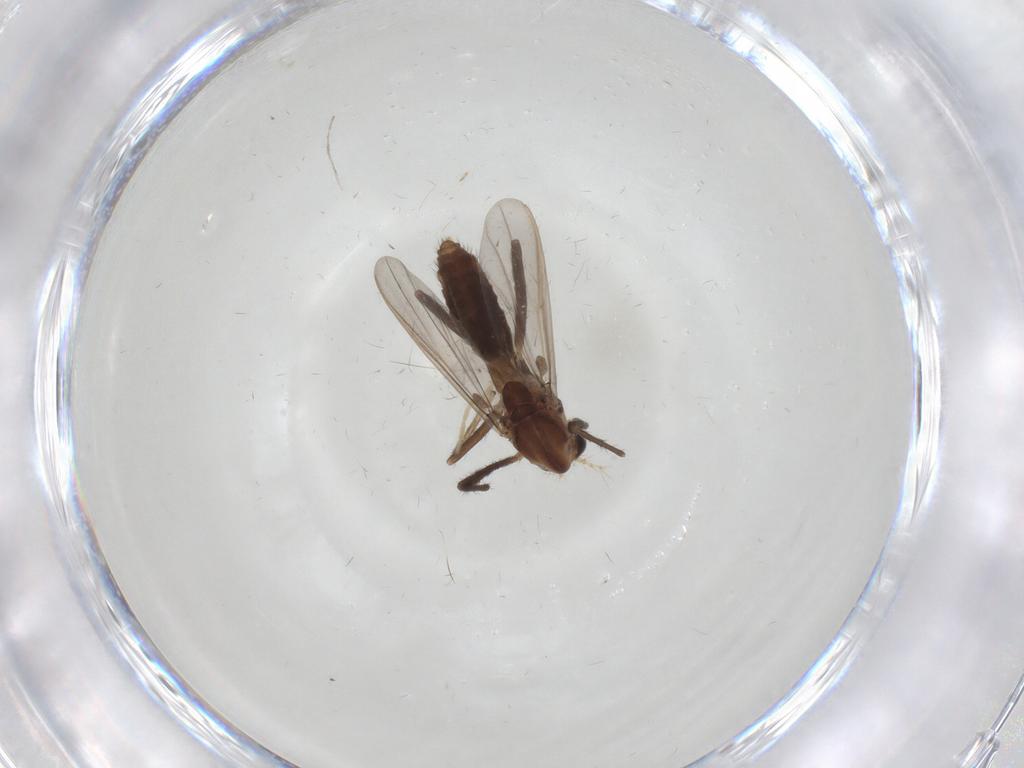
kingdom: Animalia
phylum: Arthropoda
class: Insecta
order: Diptera
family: Chironomidae
